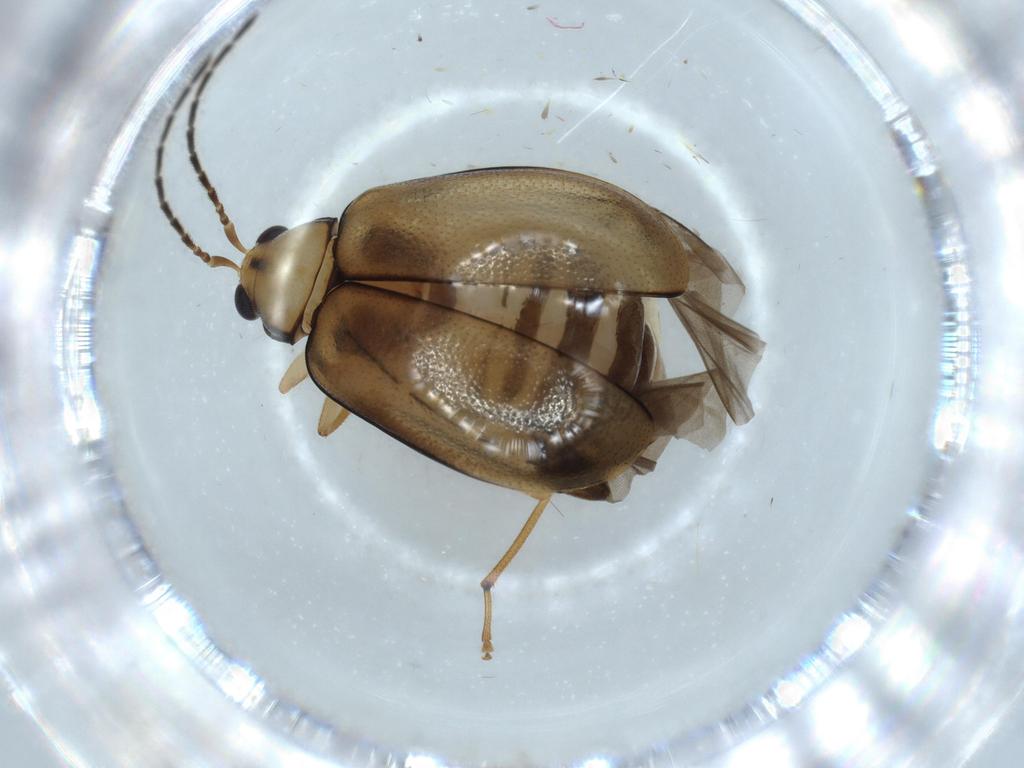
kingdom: Animalia
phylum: Arthropoda
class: Insecta
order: Coleoptera
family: Chrysomelidae
